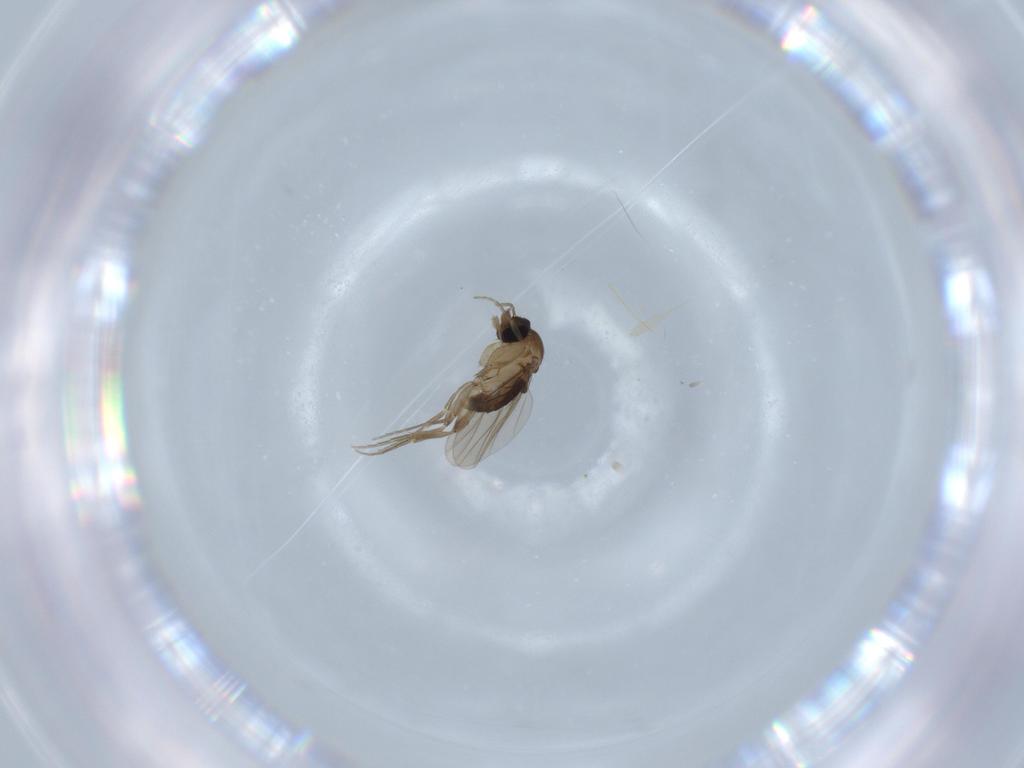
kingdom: Animalia
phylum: Arthropoda
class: Insecta
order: Diptera
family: Phoridae
